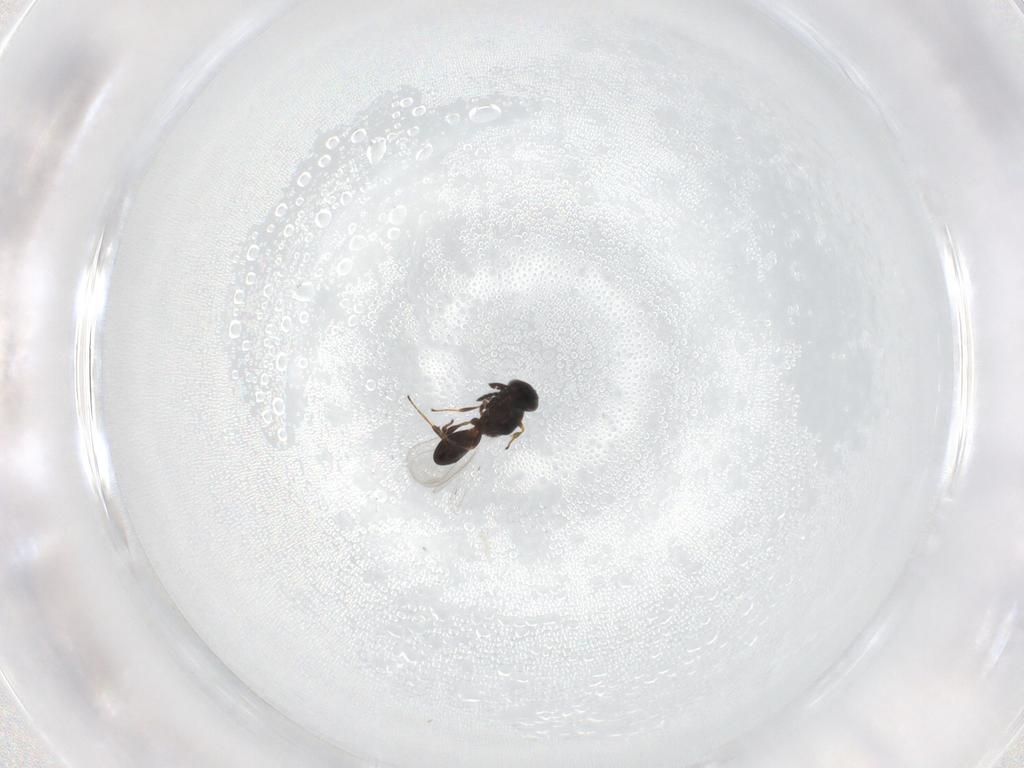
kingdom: Animalia
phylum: Arthropoda
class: Insecta
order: Hymenoptera
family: Platygastridae
